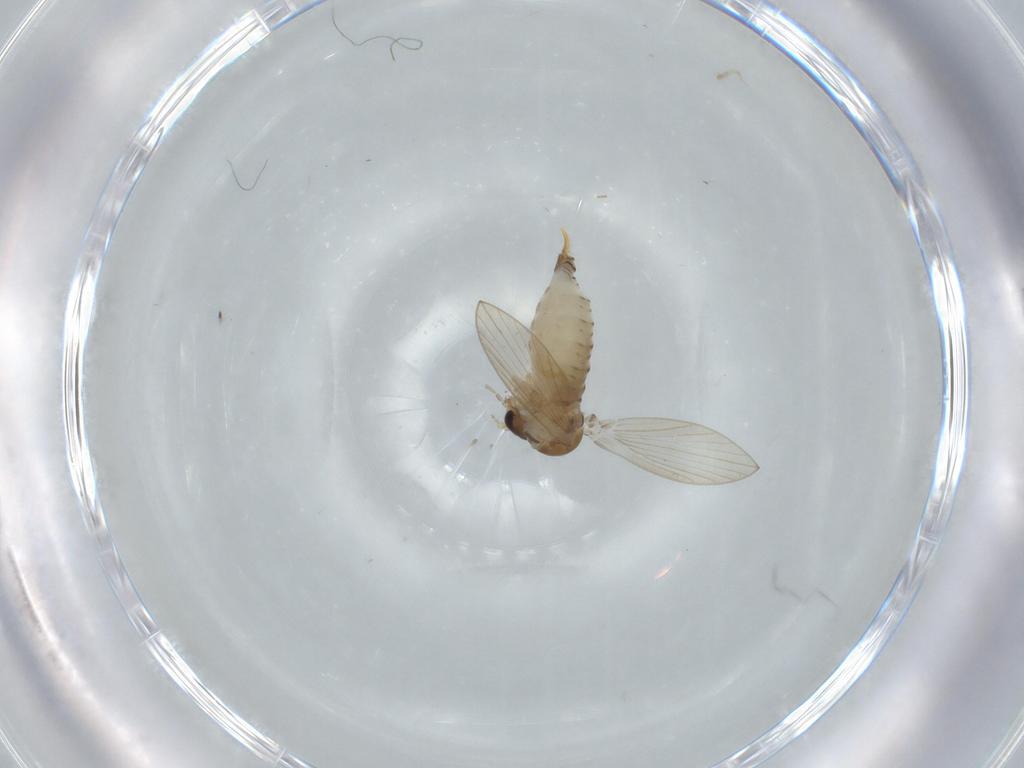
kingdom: Animalia
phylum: Arthropoda
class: Insecta
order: Diptera
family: Psychodidae
